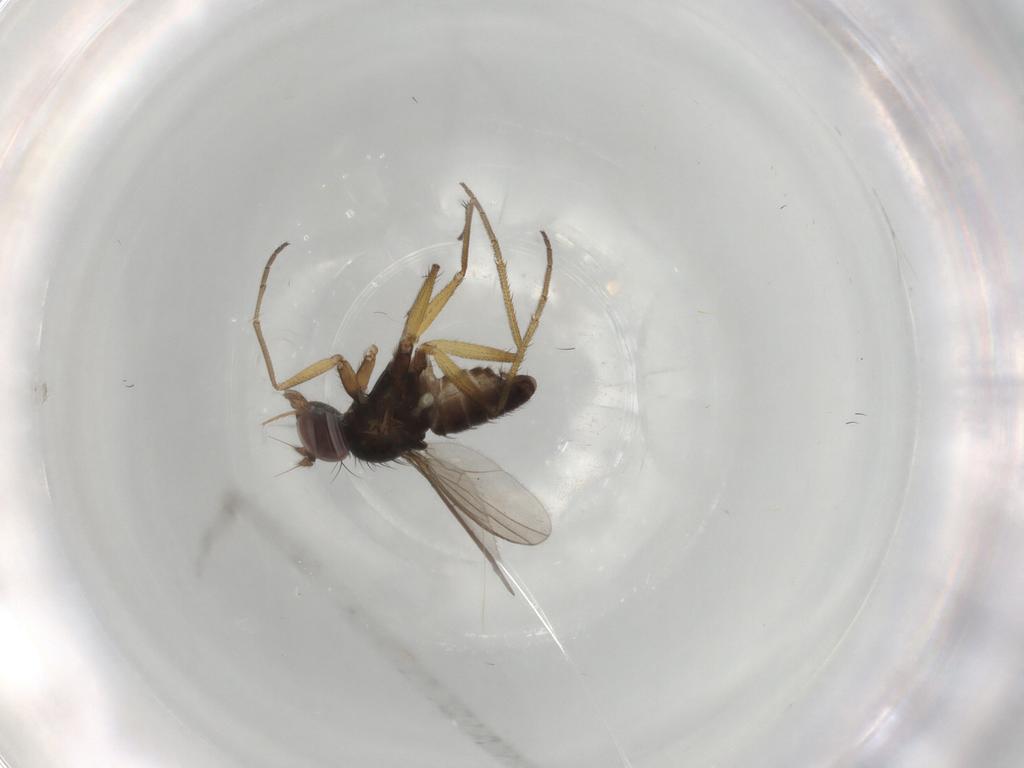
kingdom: Animalia
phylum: Arthropoda
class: Insecta
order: Diptera
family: Dolichopodidae
